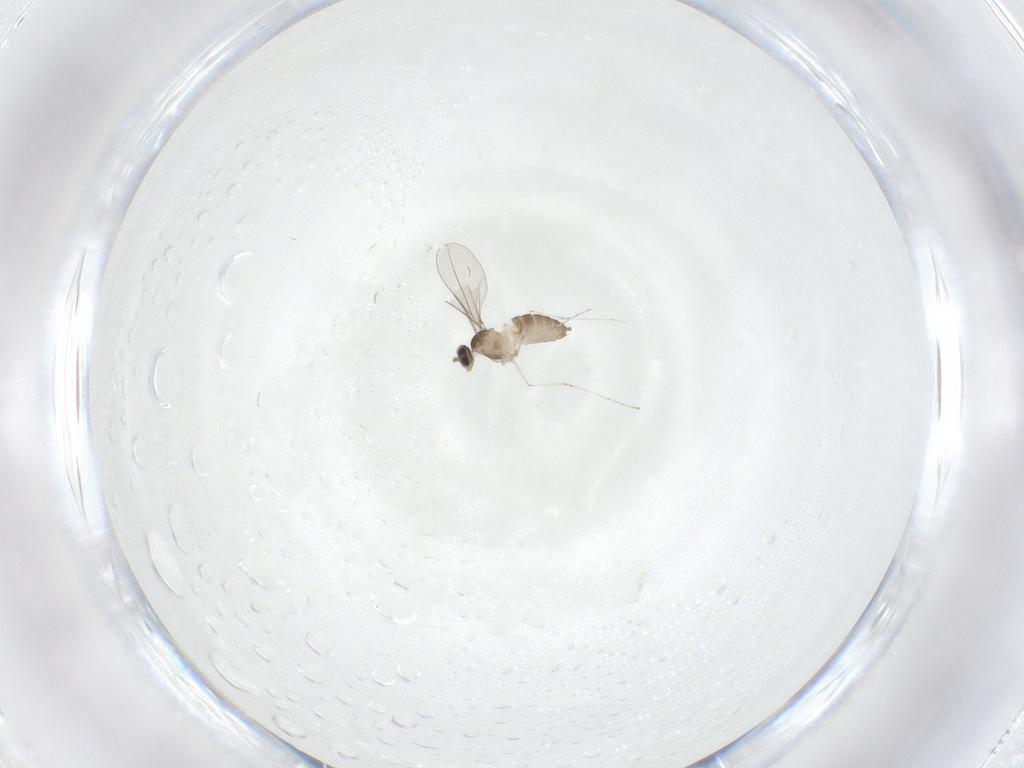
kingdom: Animalia
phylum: Arthropoda
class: Insecta
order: Diptera
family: Cecidomyiidae
